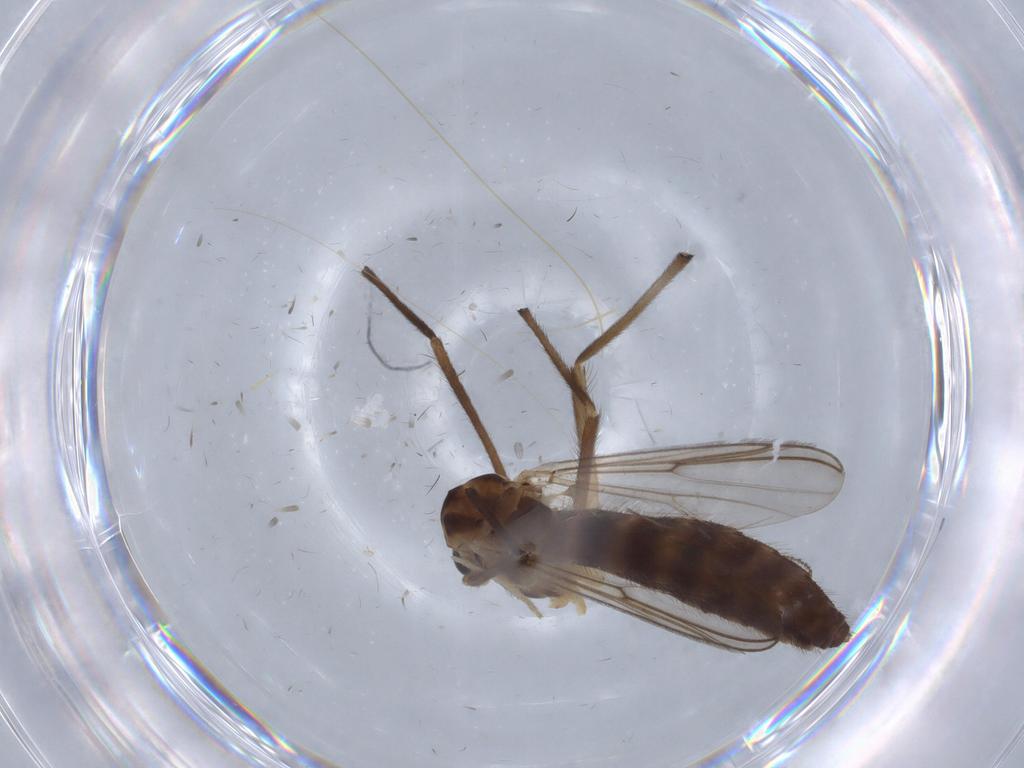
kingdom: Animalia
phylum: Arthropoda
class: Insecta
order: Diptera
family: Chironomidae
